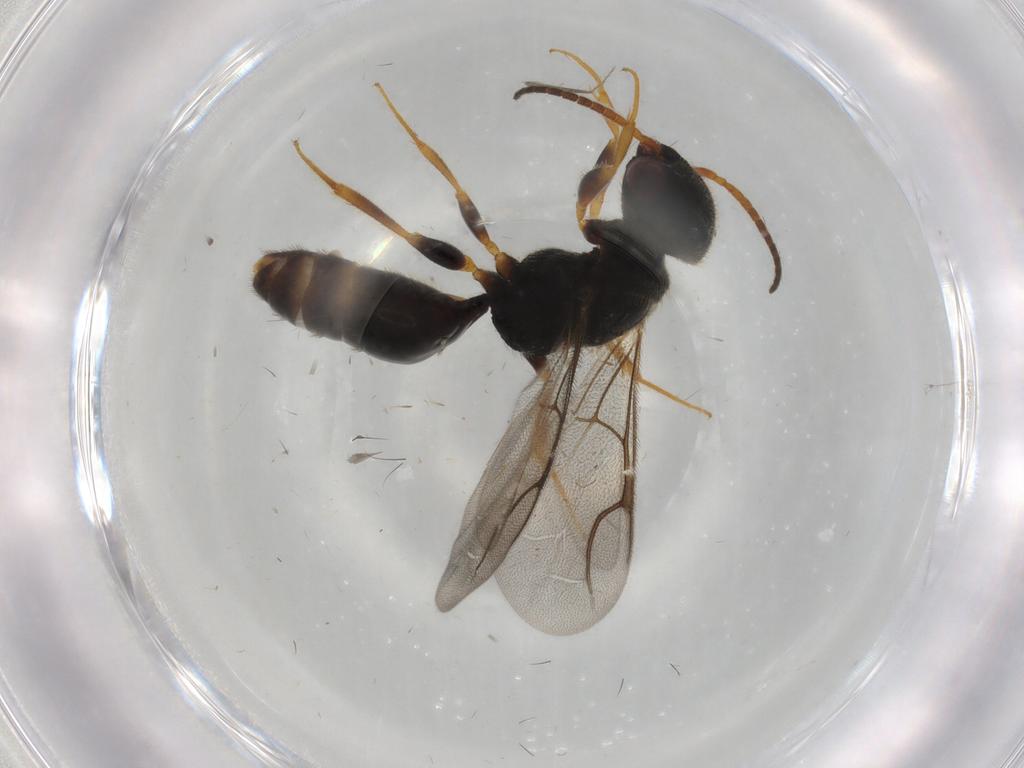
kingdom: Animalia
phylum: Arthropoda
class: Insecta
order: Hymenoptera
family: Bethylidae
